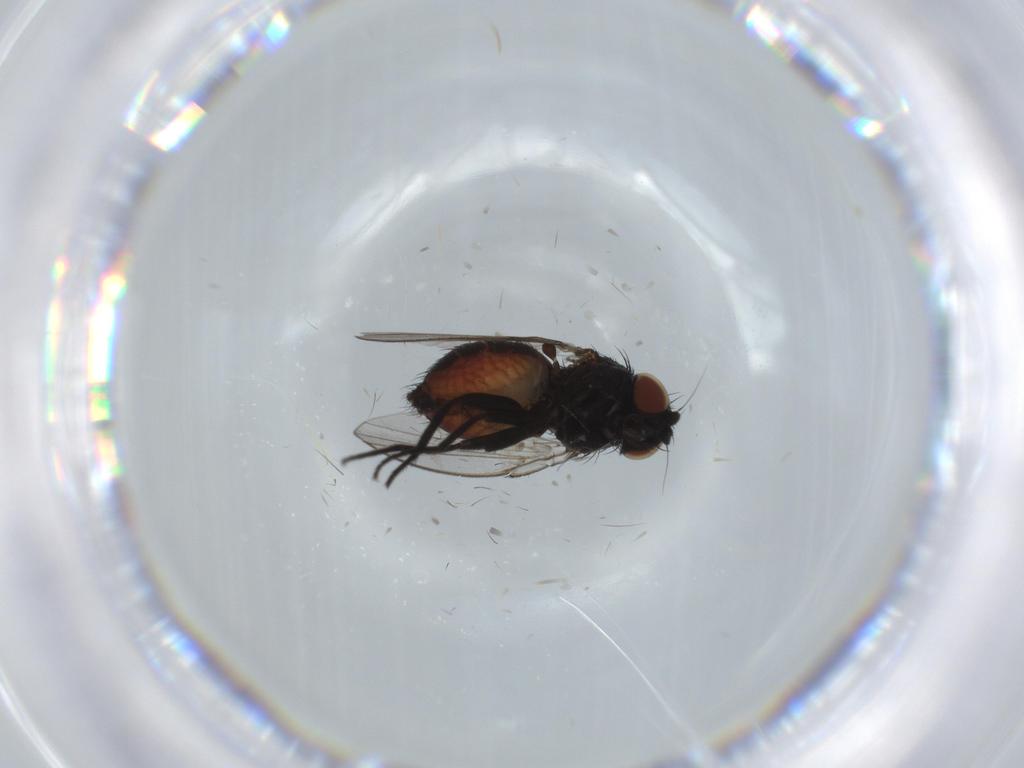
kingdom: Animalia
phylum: Arthropoda
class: Insecta
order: Diptera
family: Milichiidae
